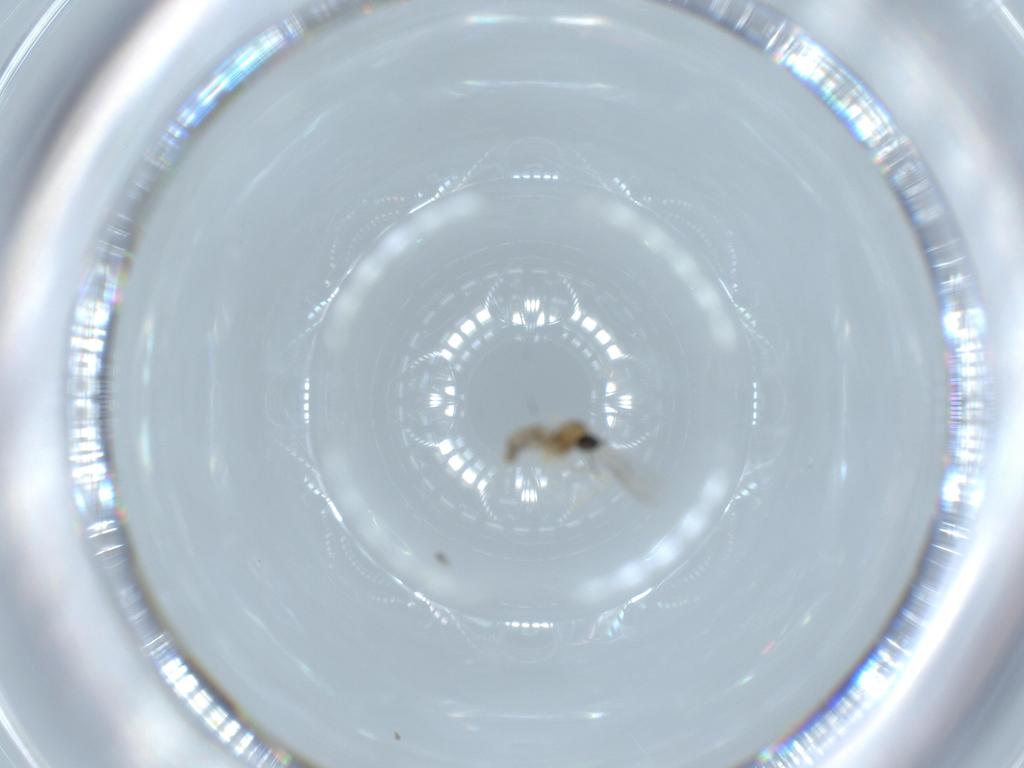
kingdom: Animalia
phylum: Arthropoda
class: Insecta
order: Diptera
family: Cecidomyiidae
